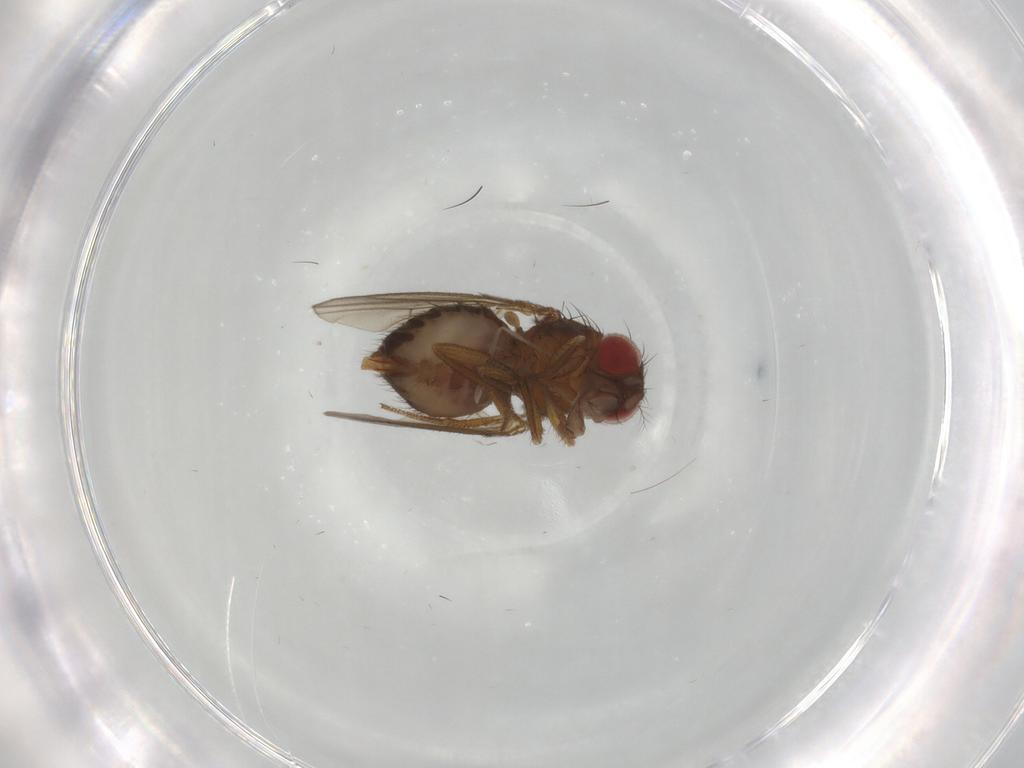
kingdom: Animalia
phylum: Arthropoda
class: Insecta
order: Diptera
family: Drosophilidae
